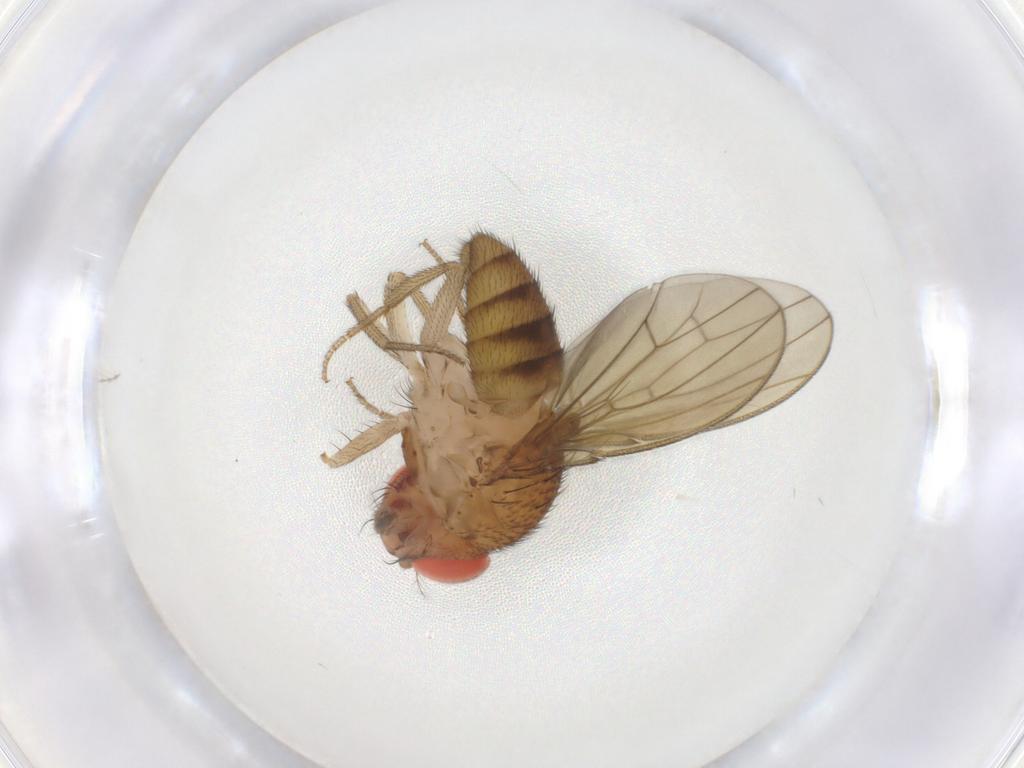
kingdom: Animalia
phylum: Arthropoda
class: Insecta
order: Diptera
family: Drosophilidae
